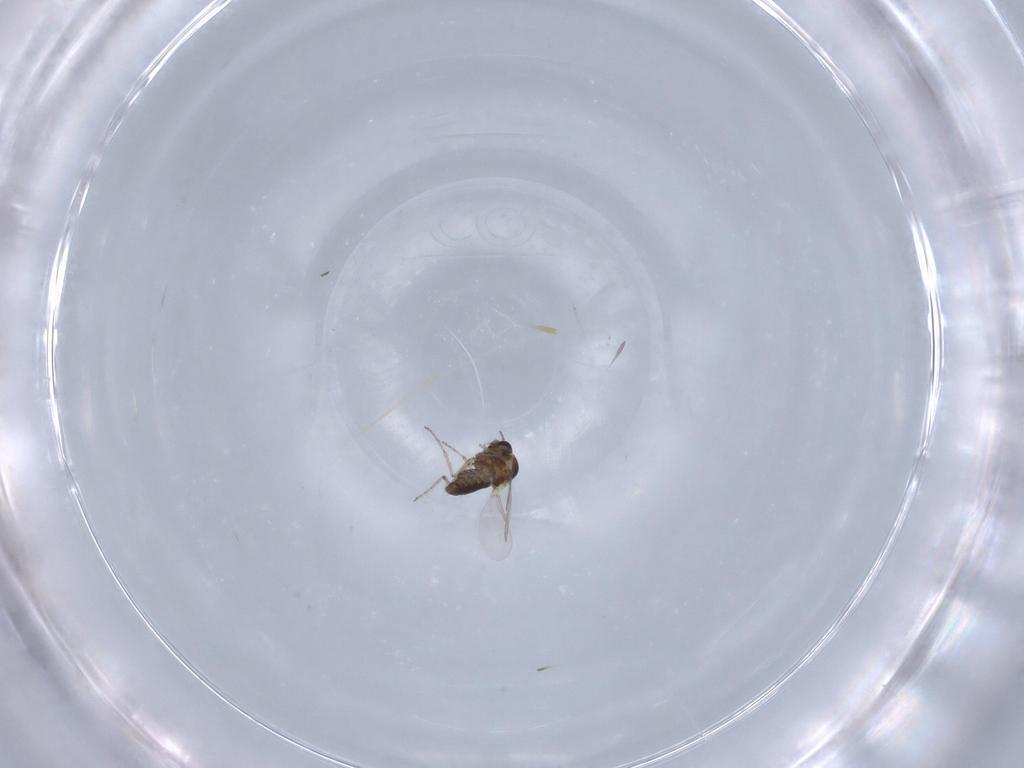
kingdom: Animalia
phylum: Arthropoda
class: Insecta
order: Diptera
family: Ceratopogonidae
